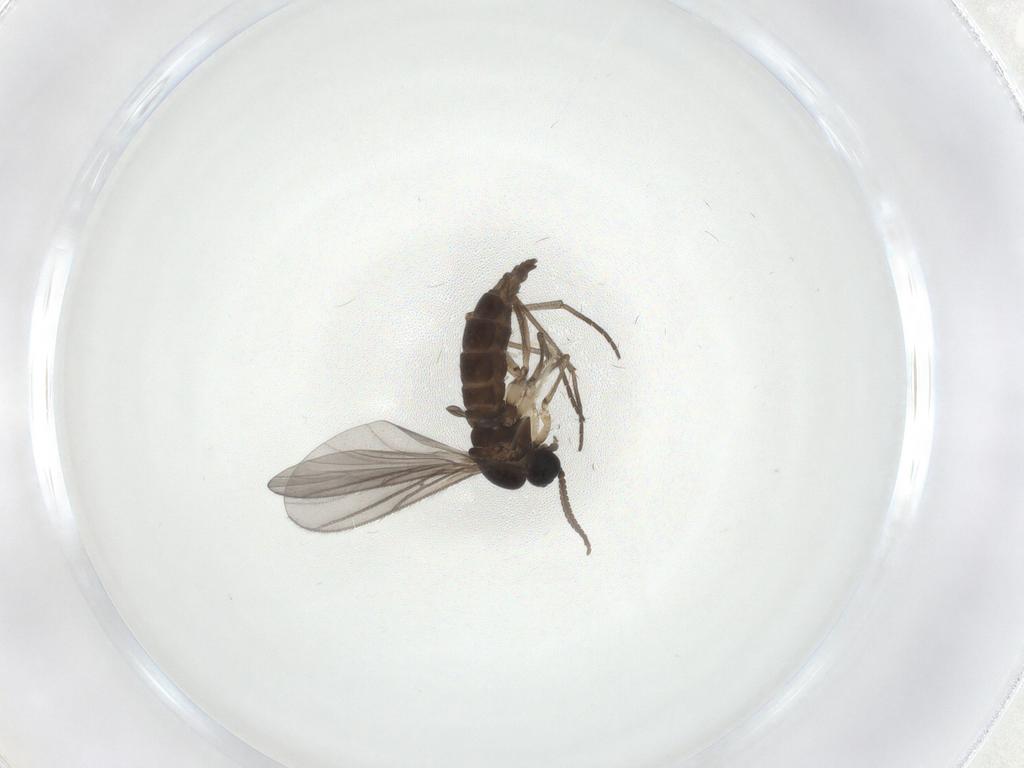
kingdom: Animalia
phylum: Arthropoda
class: Insecta
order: Diptera
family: Sciaridae
